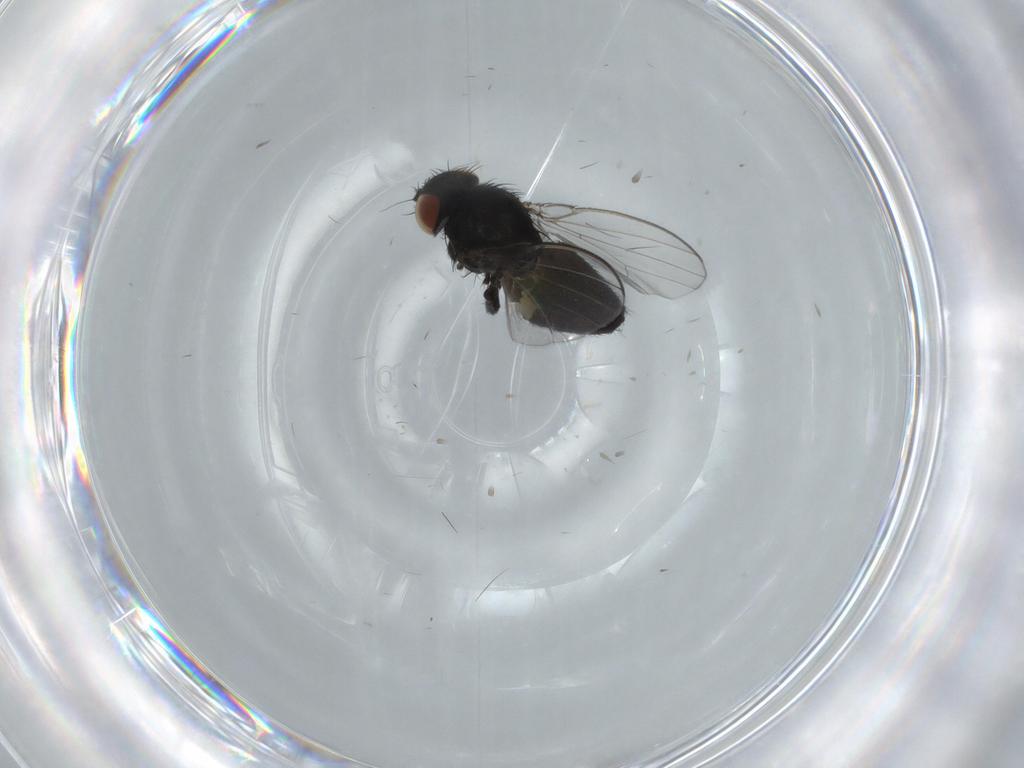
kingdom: Animalia
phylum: Arthropoda
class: Insecta
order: Diptera
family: Milichiidae
